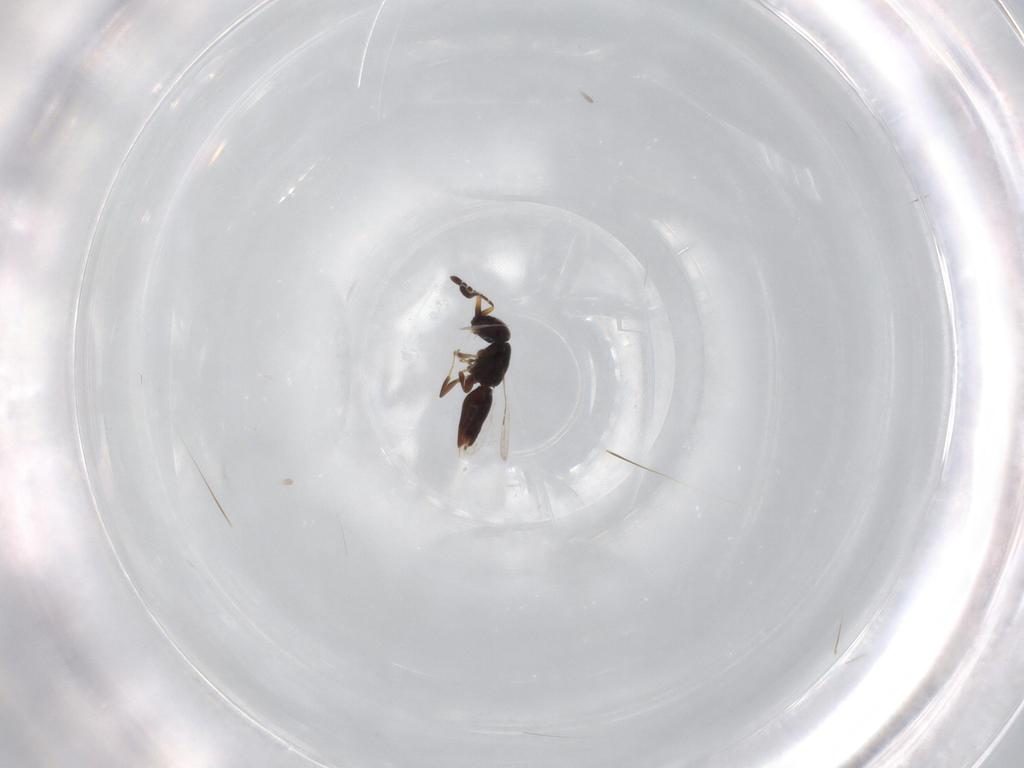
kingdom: Animalia
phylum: Arthropoda
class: Insecta
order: Hymenoptera
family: Ceraphronidae
